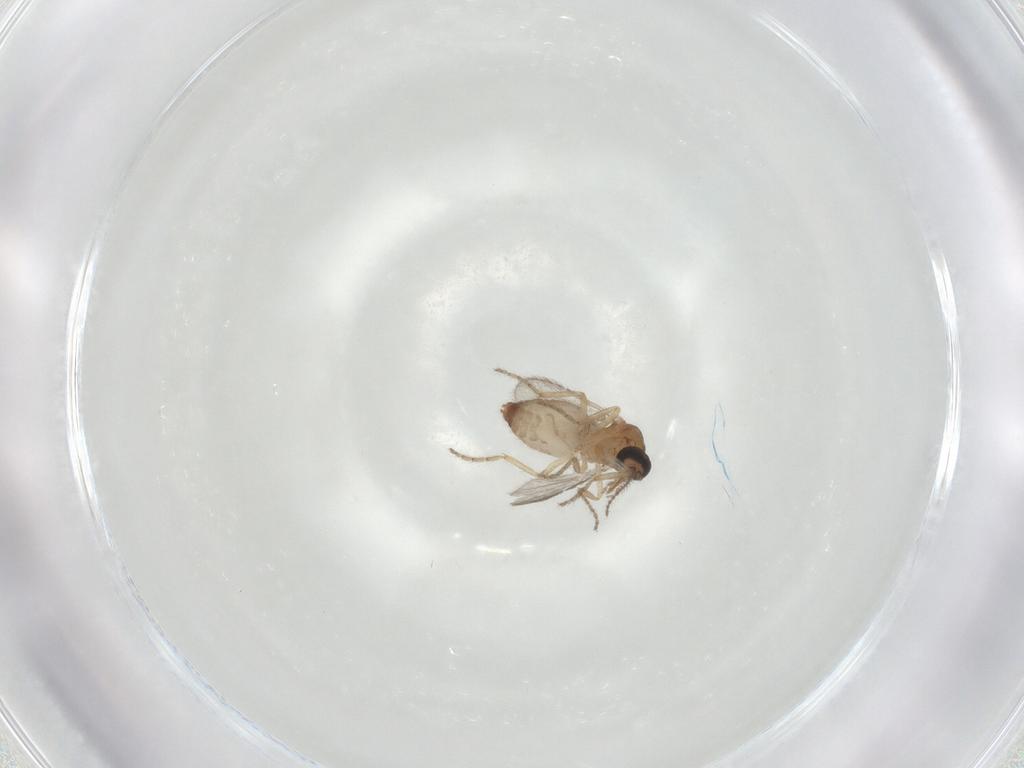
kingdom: Animalia
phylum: Arthropoda
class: Insecta
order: Diptera
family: Ceratopogonidae
